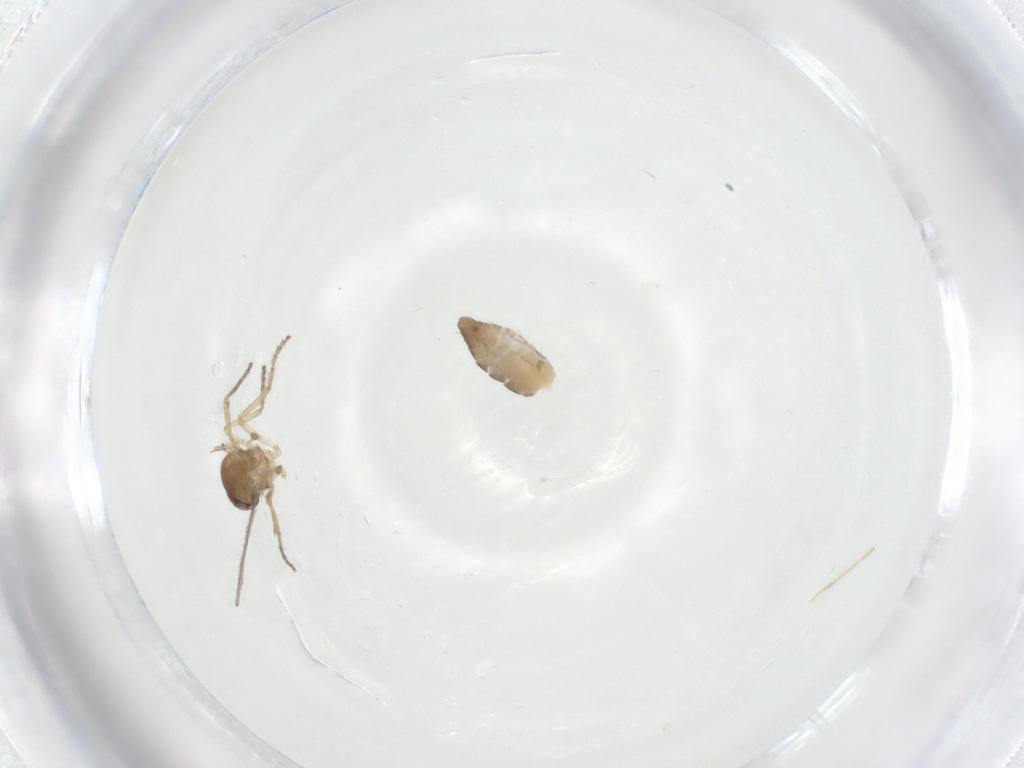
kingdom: Animalia
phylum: Arthropoda
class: Insecta
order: Diptera
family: Ceratopogonidae
